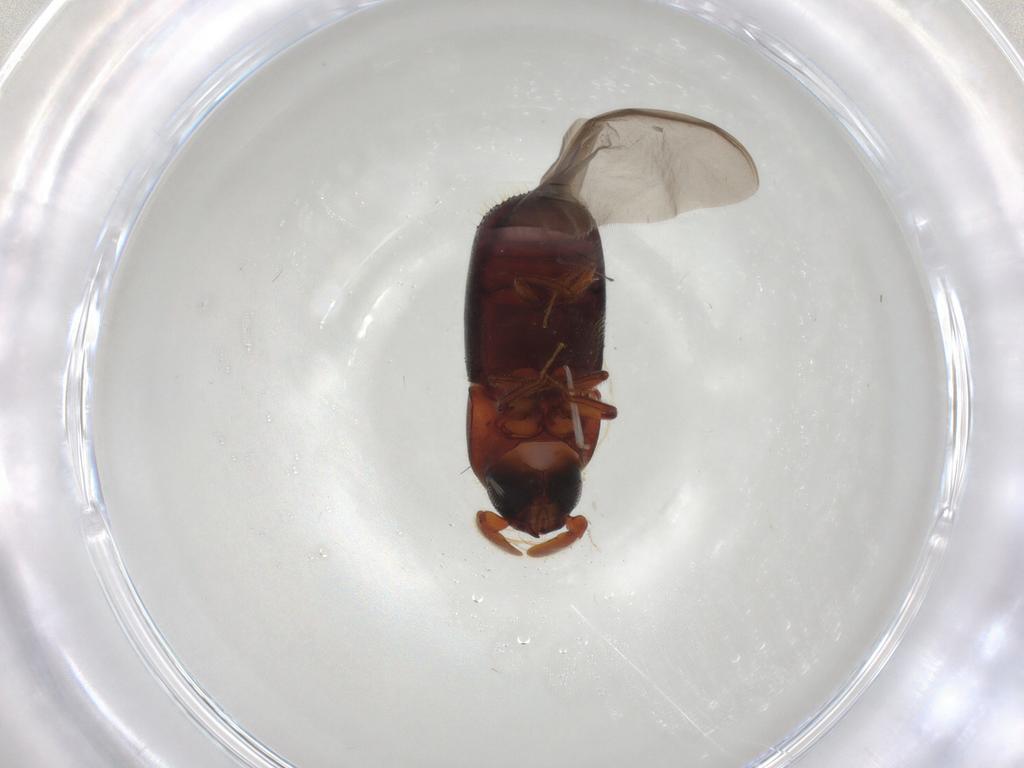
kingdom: Animalia
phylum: Arthropoda
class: Insecta
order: Coleoptera
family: Curculionidae
